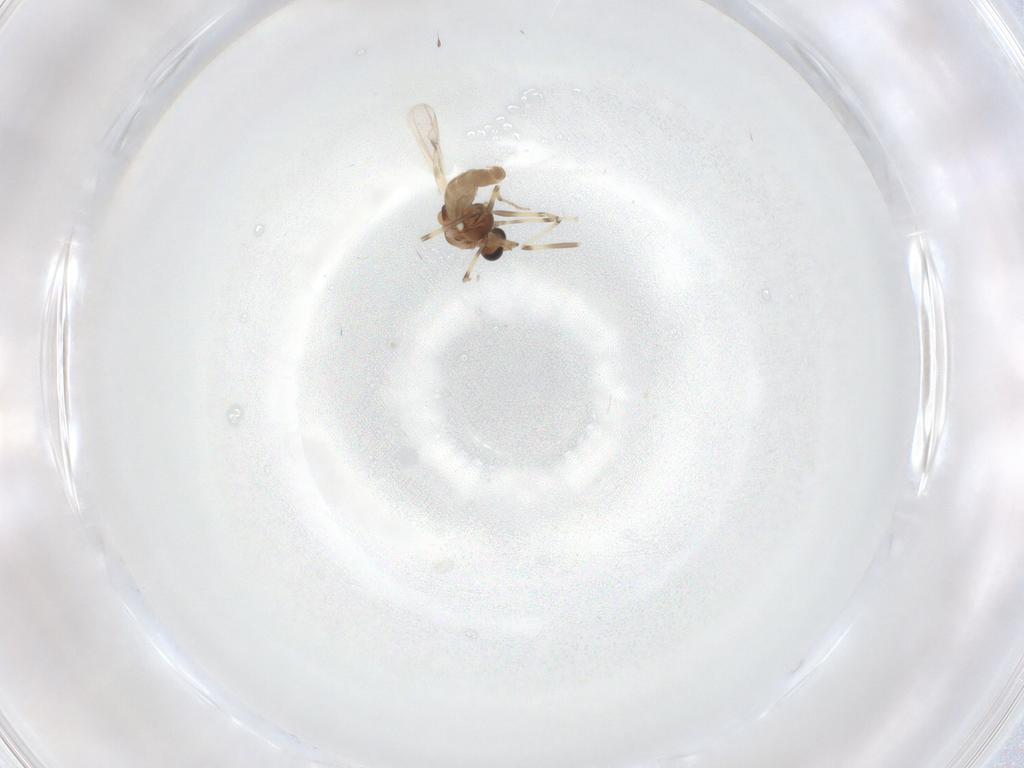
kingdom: Animalia
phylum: Arthropoda
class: Insecta
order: Diptera
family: Chironomidae
